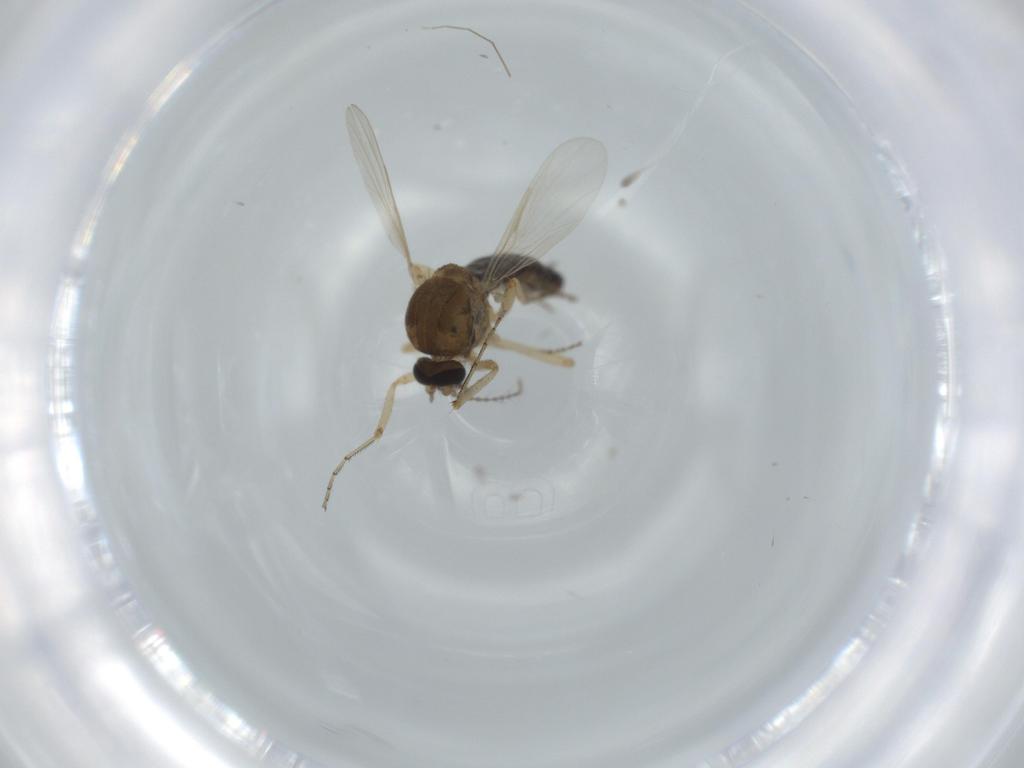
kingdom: Animalia
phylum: Arthropoda
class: Insecta
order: Diptera
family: Ceratopogonidae
